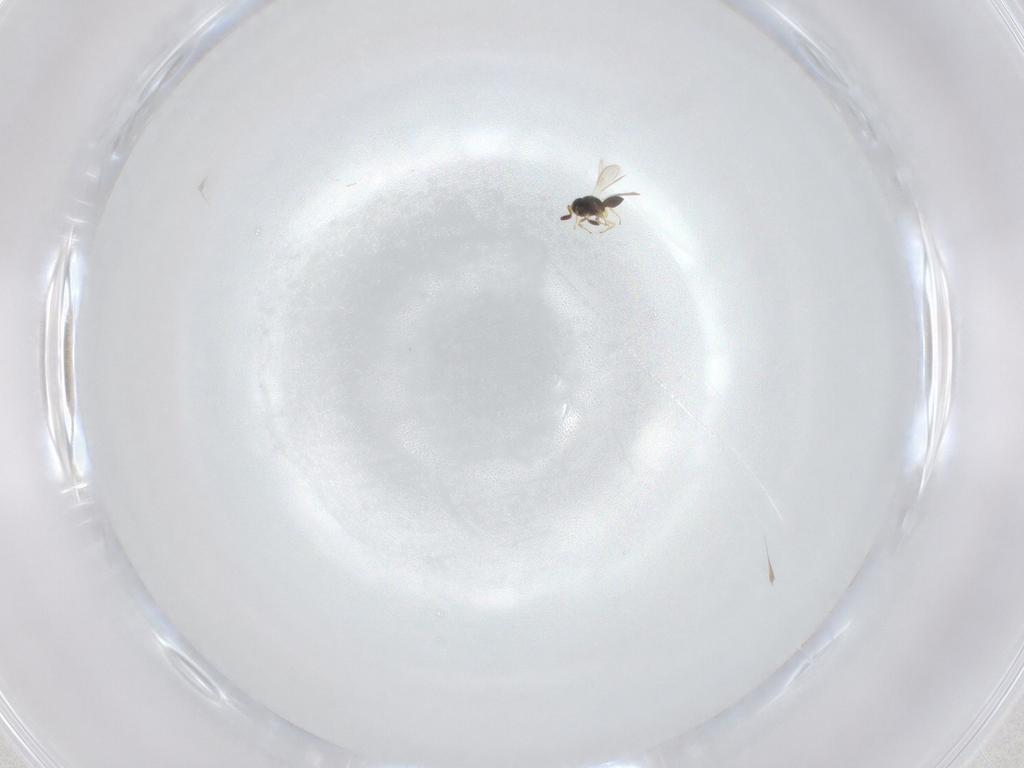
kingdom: Animalia
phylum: Arthropoda
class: Insecta
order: Hymenoptera
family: Scelionidae
